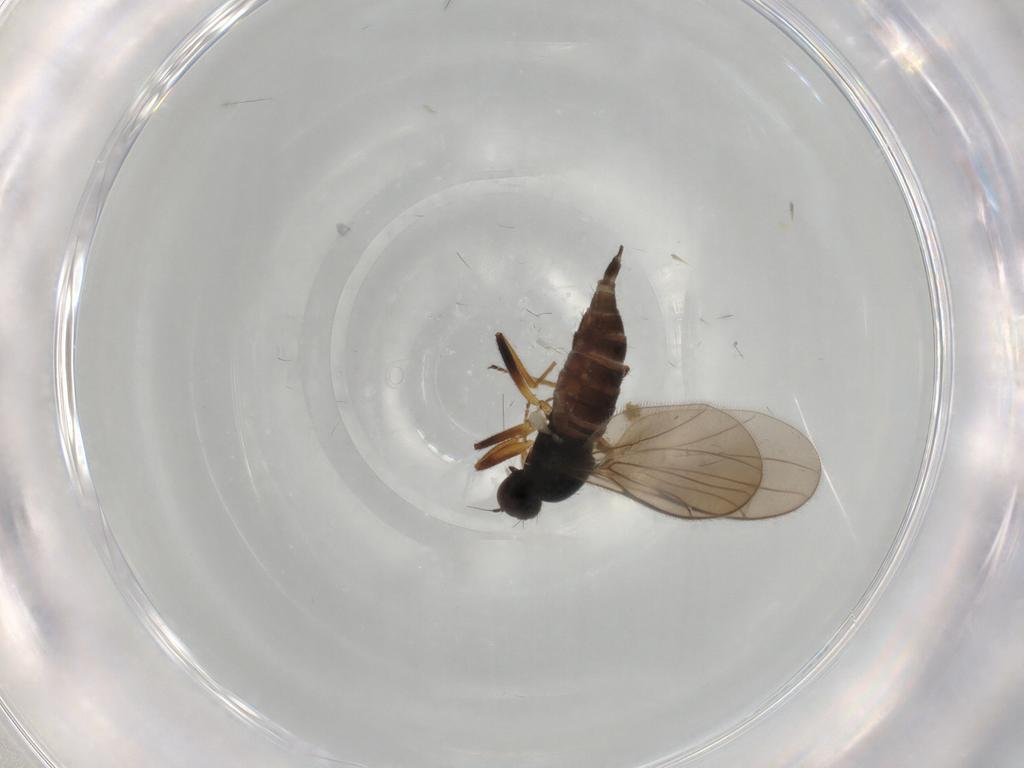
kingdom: Animalia
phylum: Arthropoda
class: Insecta
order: Diptera
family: Hybotidae
